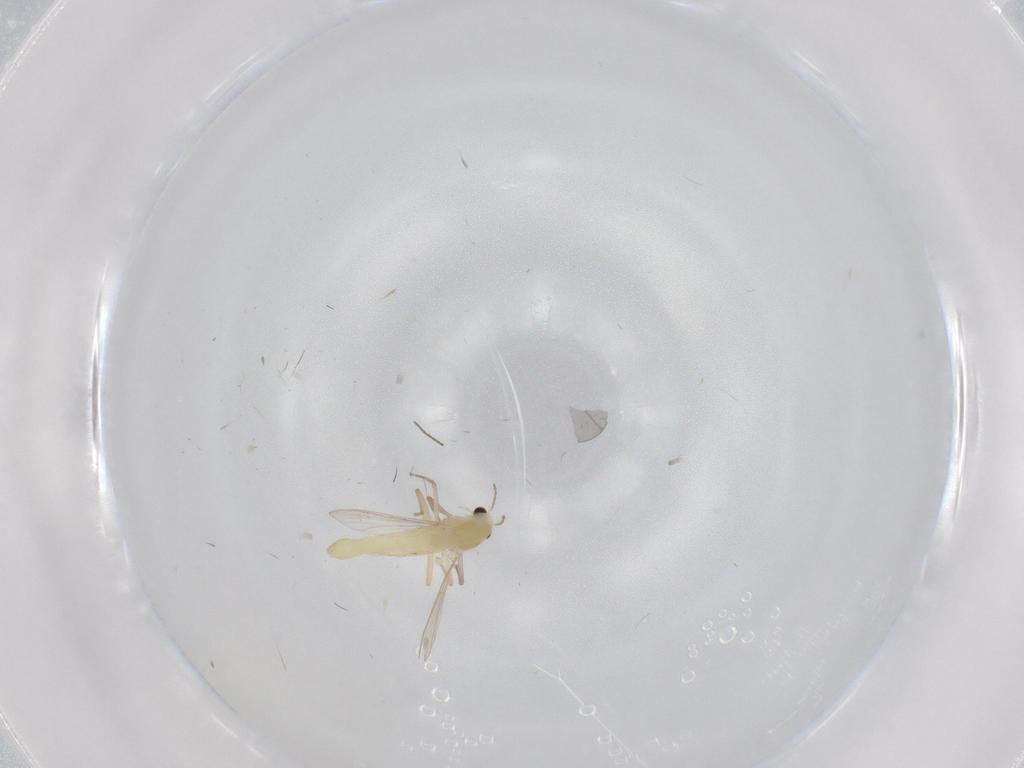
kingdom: Animalia
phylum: Arthropoda
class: Insecta
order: Diptera
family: Chironomidae
